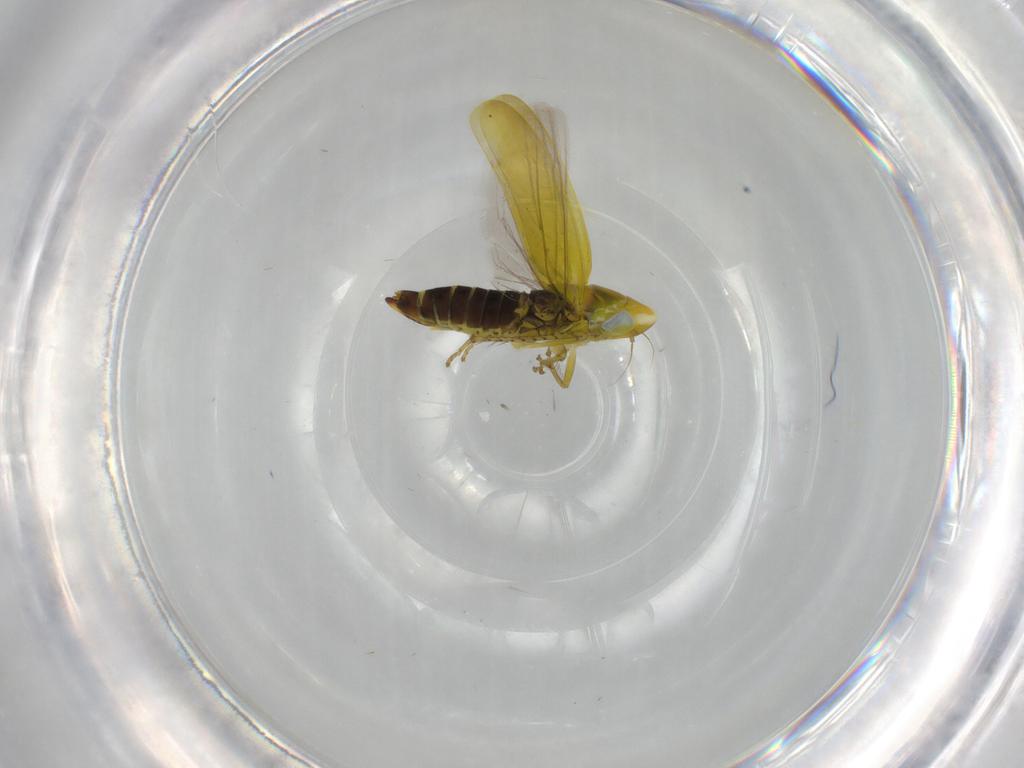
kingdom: Animalia
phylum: Arthropoda
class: Insecta
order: Hemiptera
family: Cicadellidae
